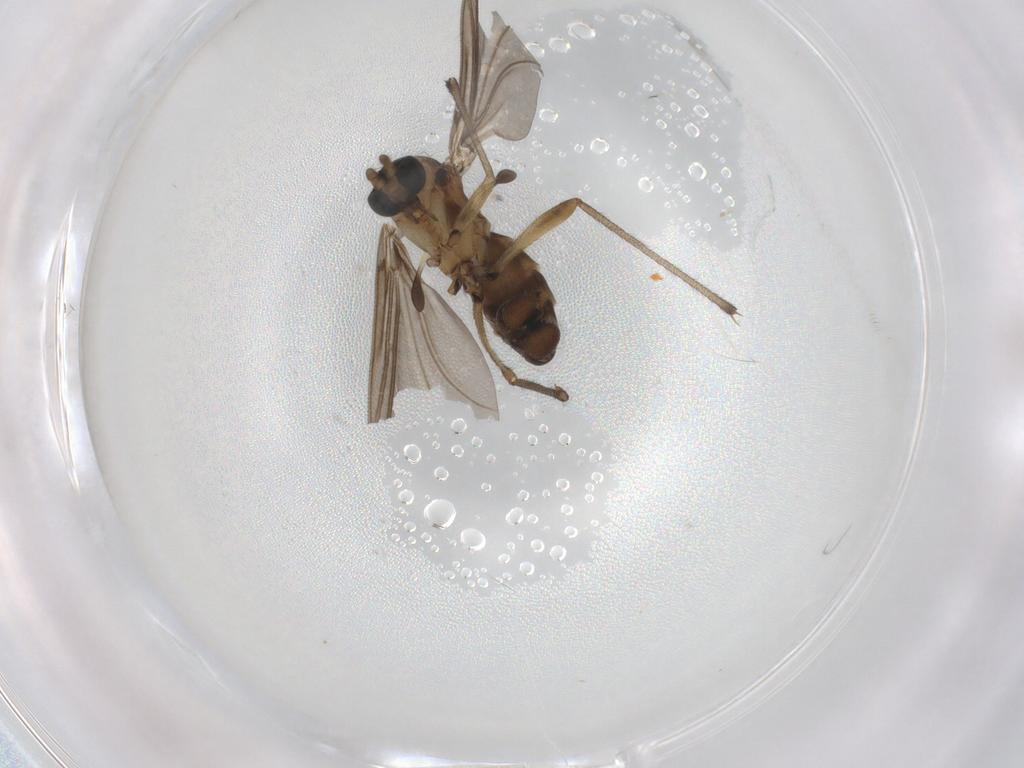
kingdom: Animalia
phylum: Arthropoda
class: Insecta
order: Diptera
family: Sciaridae
